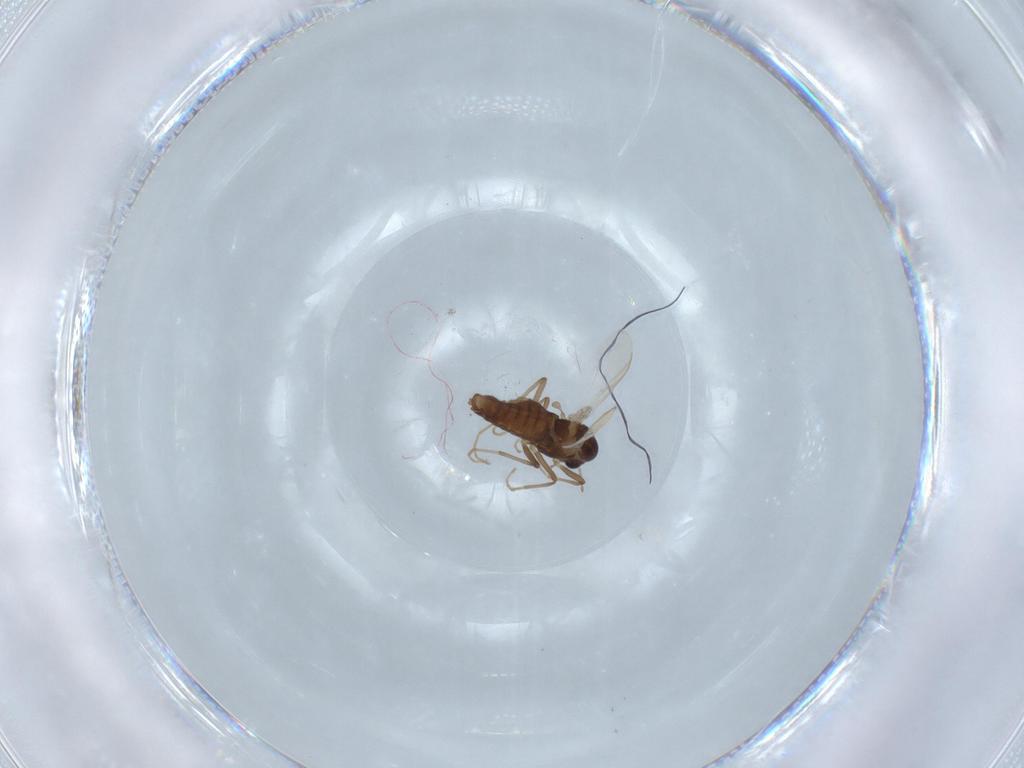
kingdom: Animalia
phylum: Arthropoda
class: Insecta
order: Diptera
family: Chironomidae
